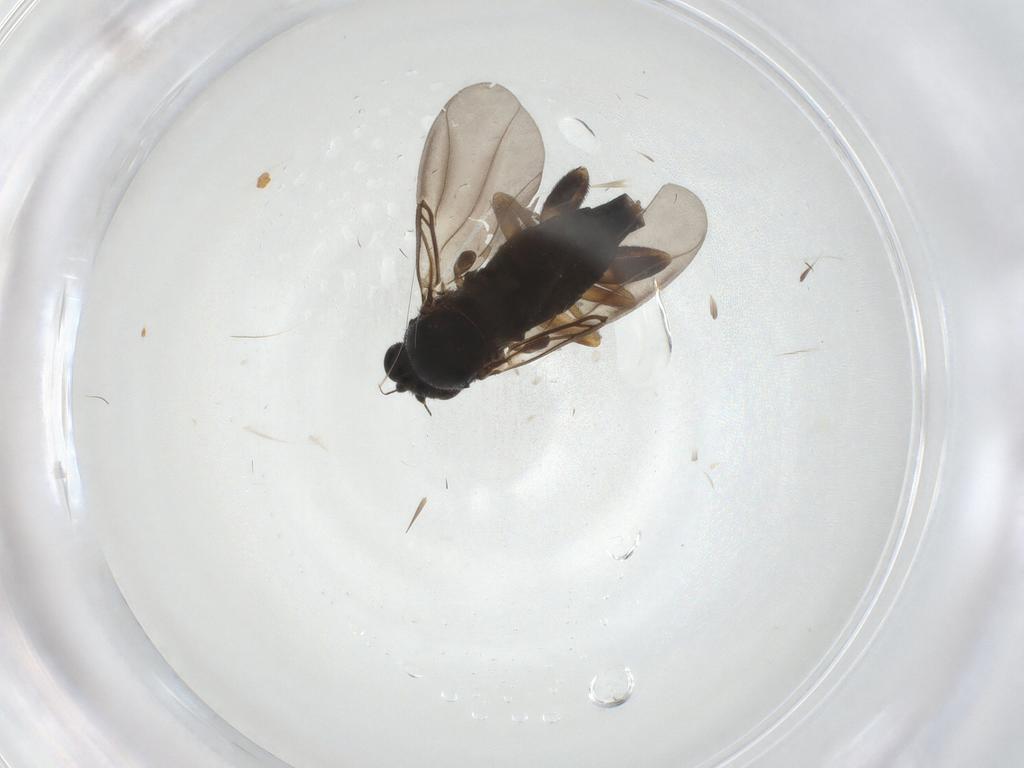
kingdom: Animalia
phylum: Arthropoda
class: Insecta
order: Diptera
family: Phoridae
